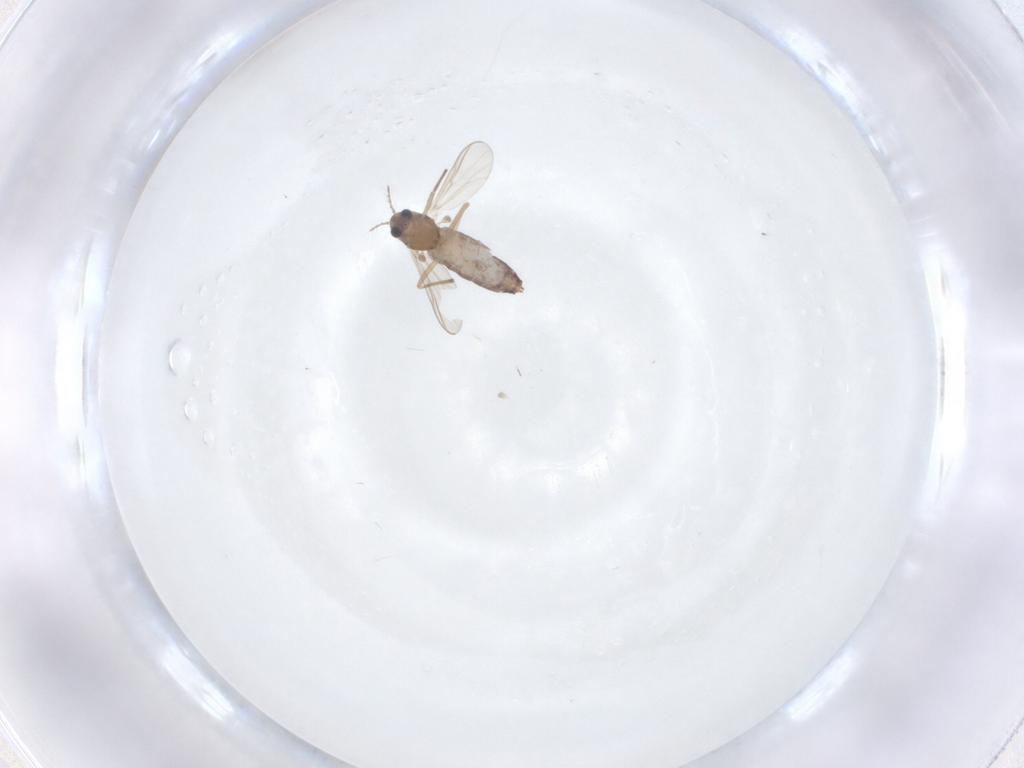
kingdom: Animalia
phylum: Arthropoda
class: Insecta
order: Diptera
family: Chironomidae
